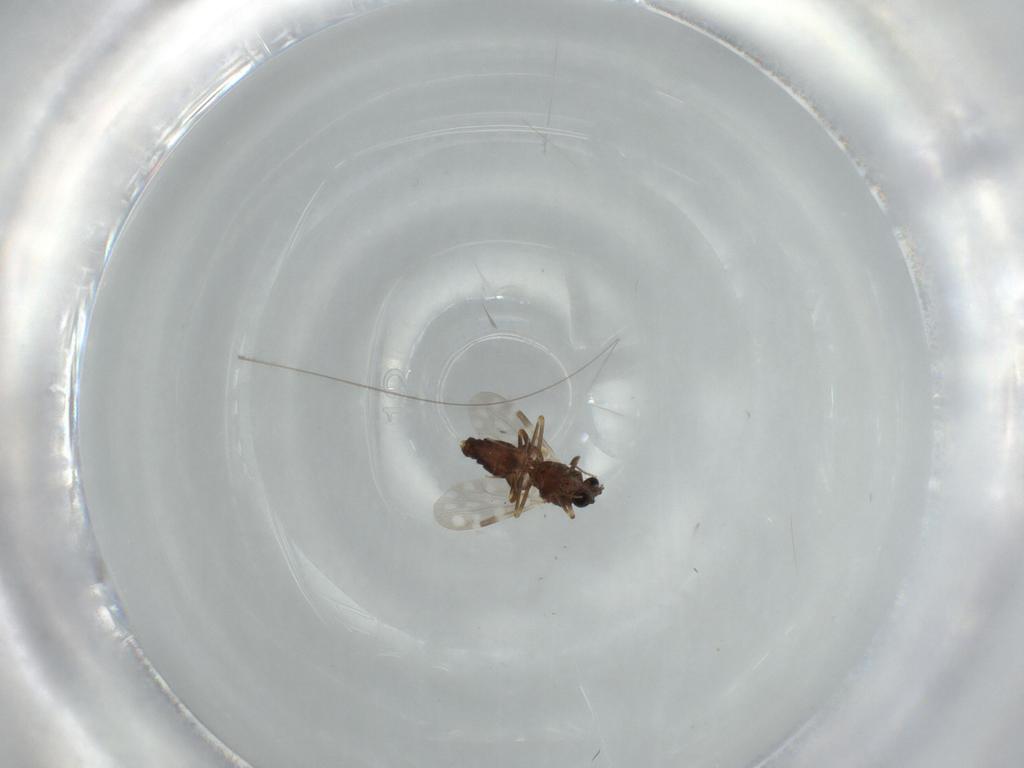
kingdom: Animalia
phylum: Arthropoda
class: Insecta
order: Diptera
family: Ceratopogonidae
